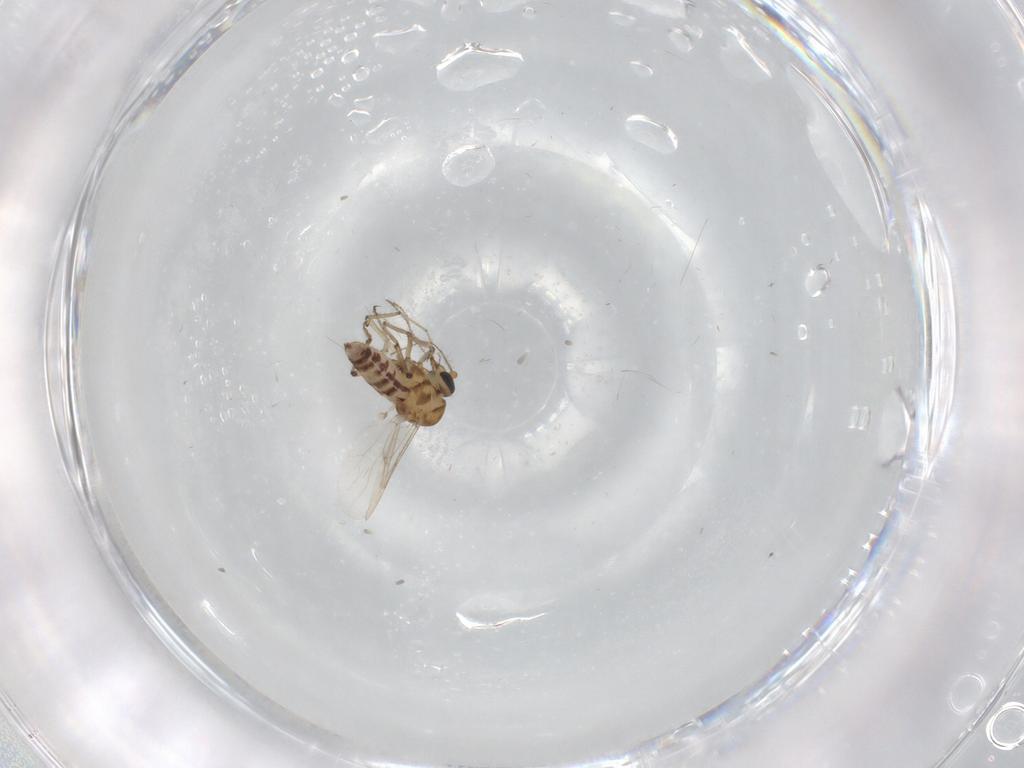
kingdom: Animalia
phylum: Arthropoda
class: Insecta
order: Diptera
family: Ceratopogonidae
